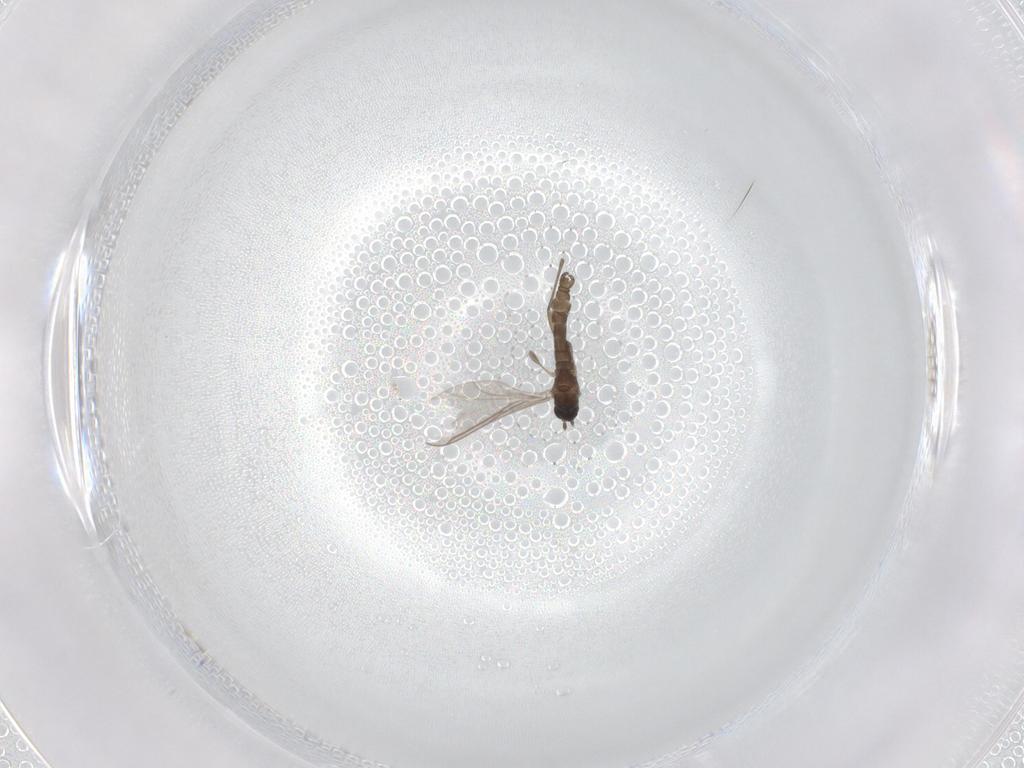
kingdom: Animalia
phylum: Arthropoda
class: Insecta
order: Diptera
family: Sciaridae
